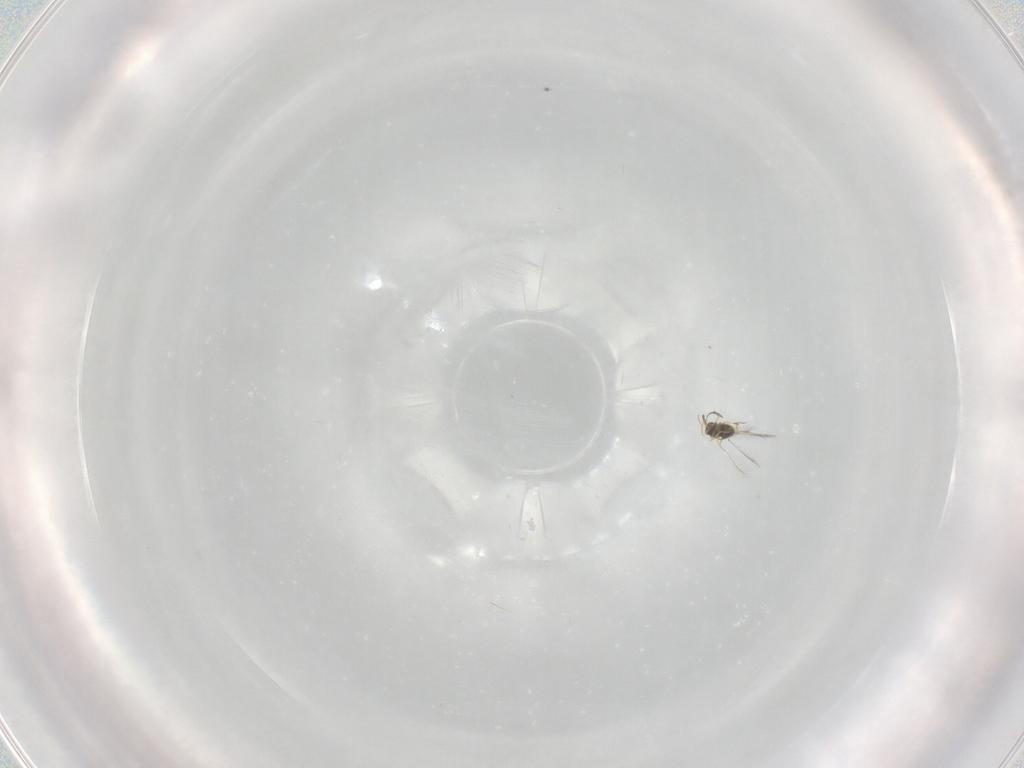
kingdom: Animalia
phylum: Arthropoda
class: Insecta
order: Hymenoptera
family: Mymaridae
